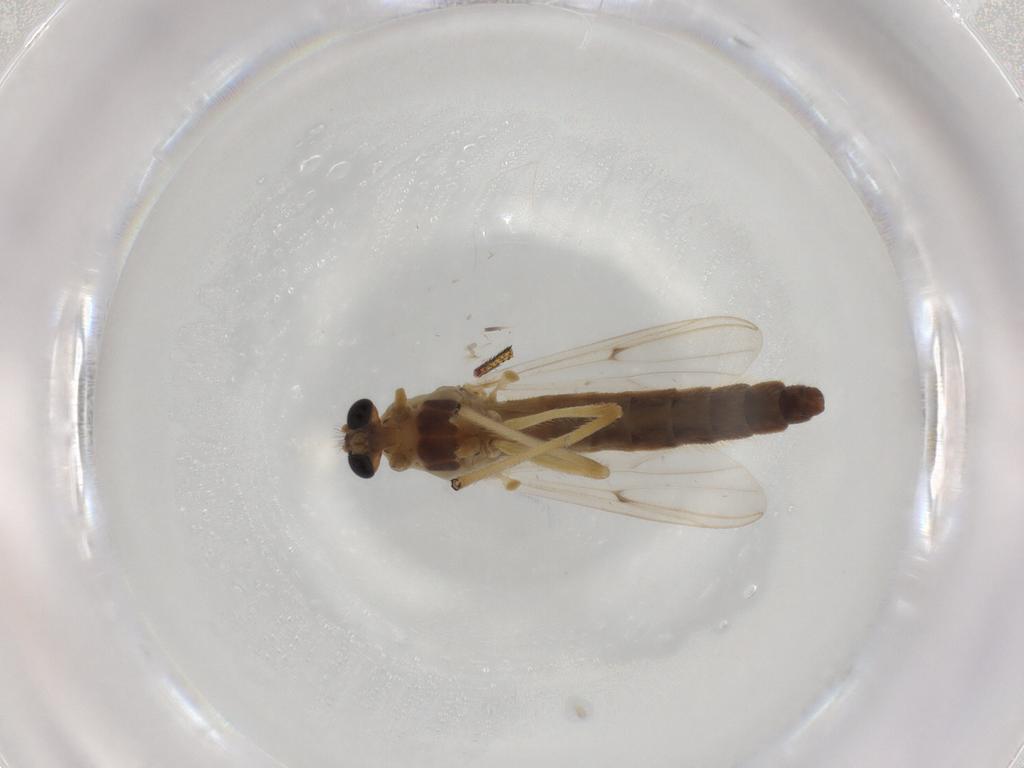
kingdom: Animalia
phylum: Arthropoda
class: Insecta
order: Diptera
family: Chironomidae
